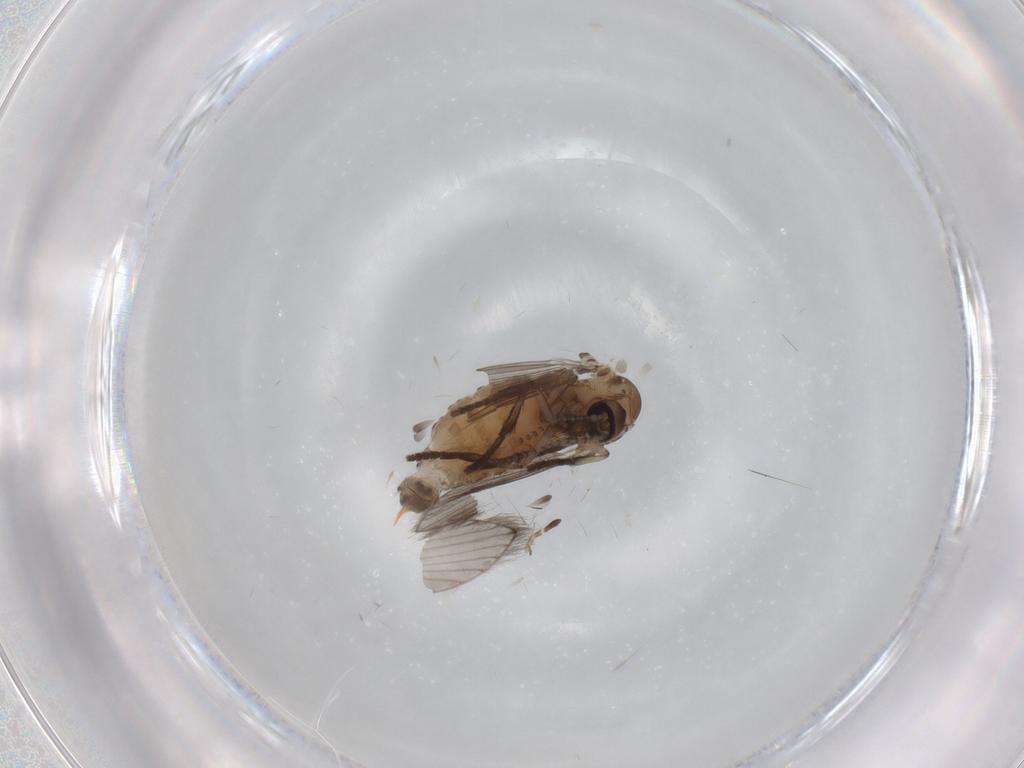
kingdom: Animalia
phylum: Arthropoda
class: Insecta
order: Diptera
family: Psychodidae
